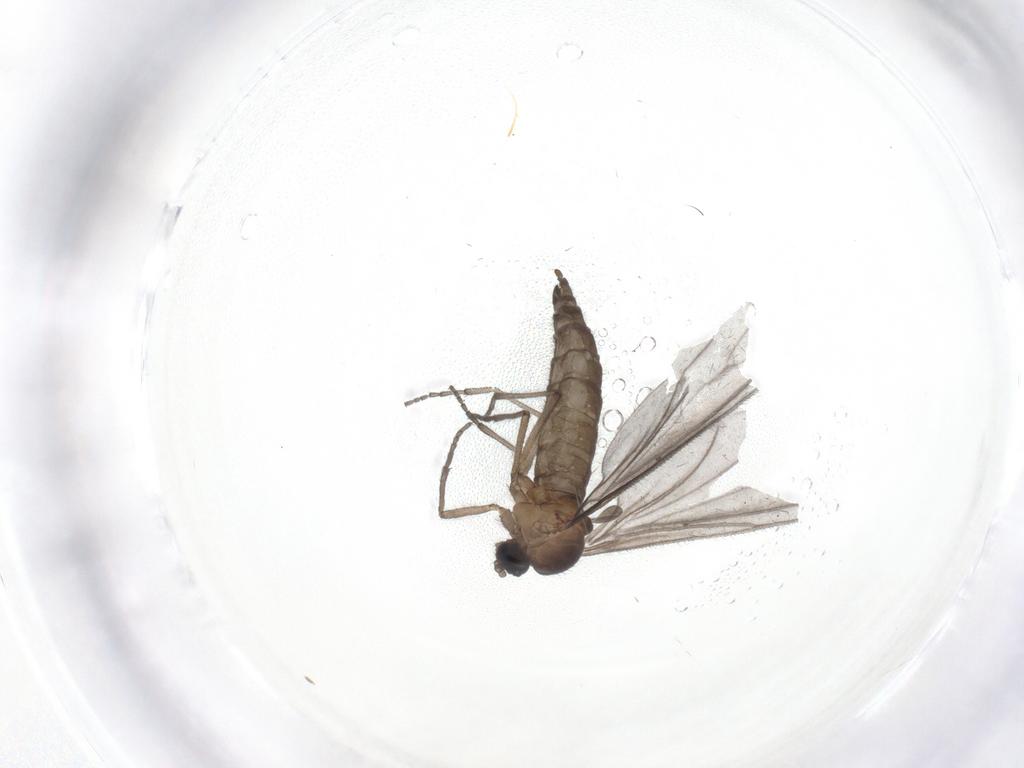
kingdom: Animalia
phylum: Arthropoda
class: Insecta
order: Diptera
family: Sciaridae
